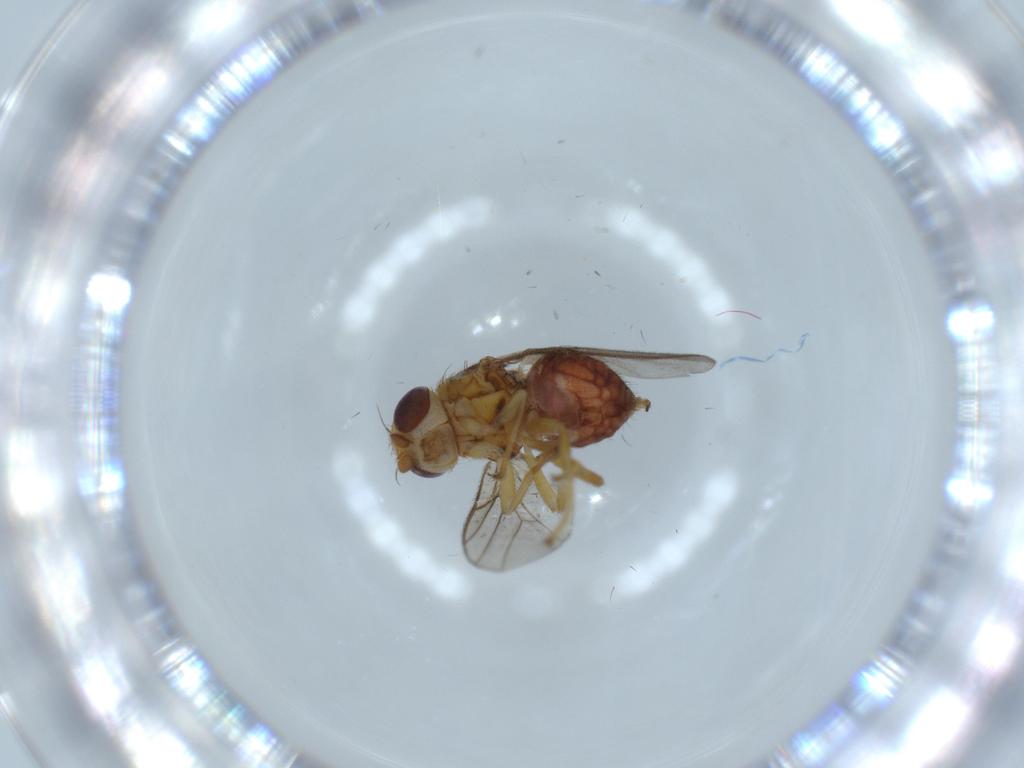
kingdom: Animalia
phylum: Arthropoda
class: Insecta
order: Diptera
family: Chloropidae
